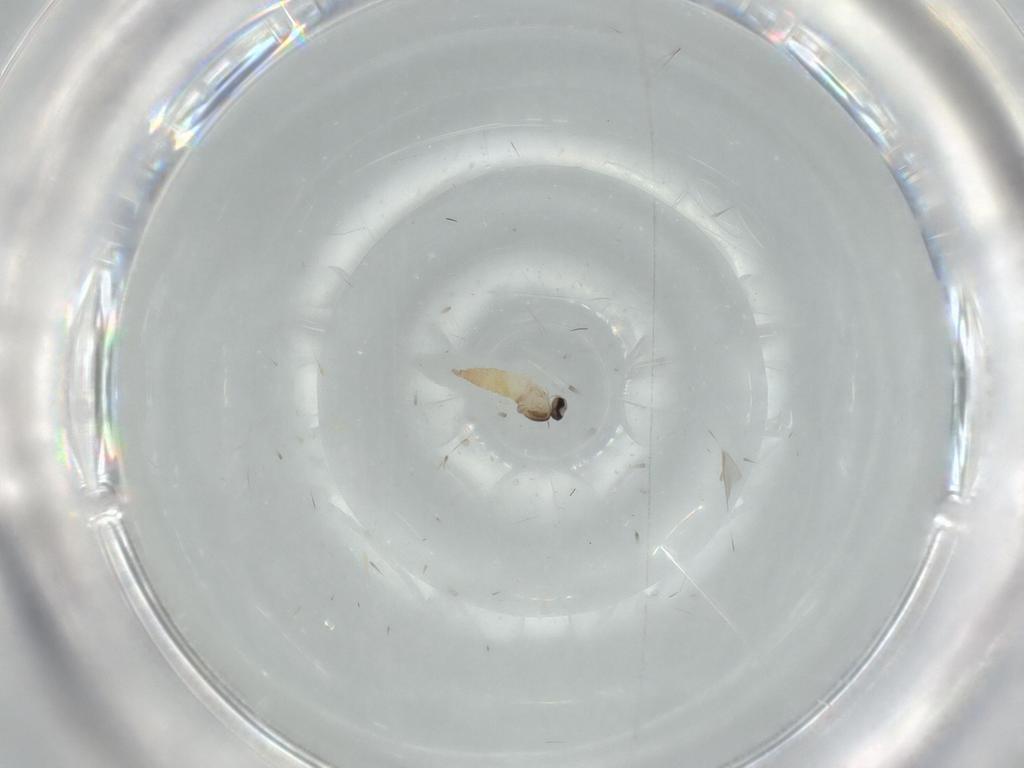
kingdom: Animalia
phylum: Arthropoda
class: Insecta
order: Diptera
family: Cecidomyiidae
